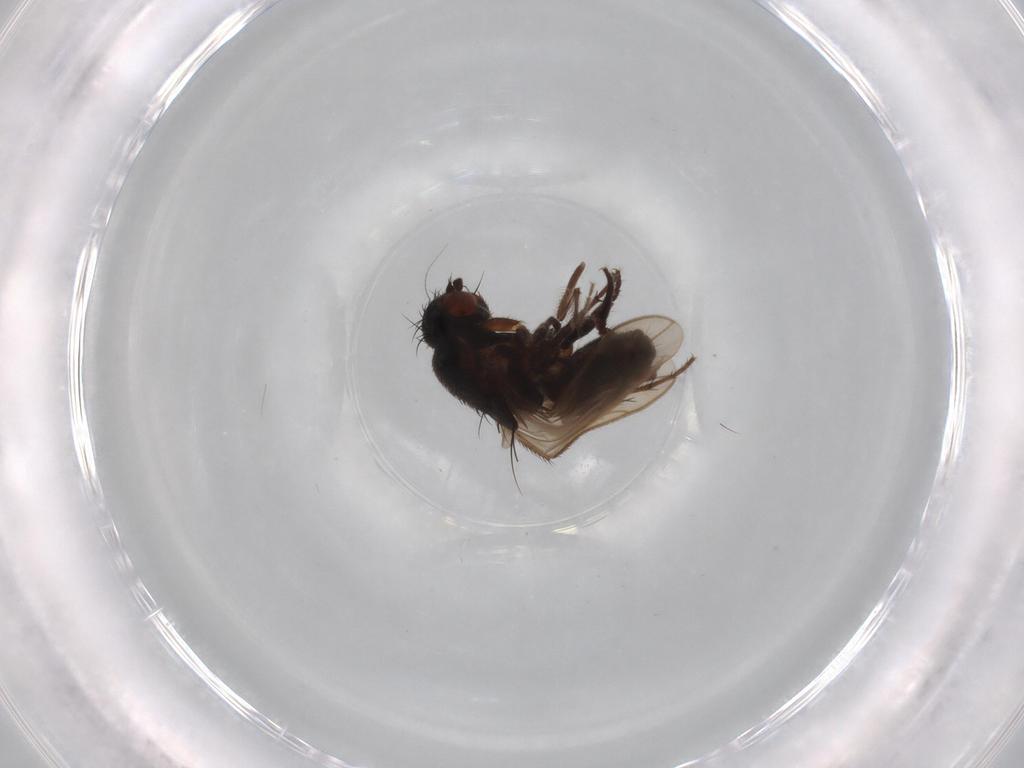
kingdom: Animalia
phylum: Arthropoda
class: Insecta
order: Diptera
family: Sphaeroceridae
